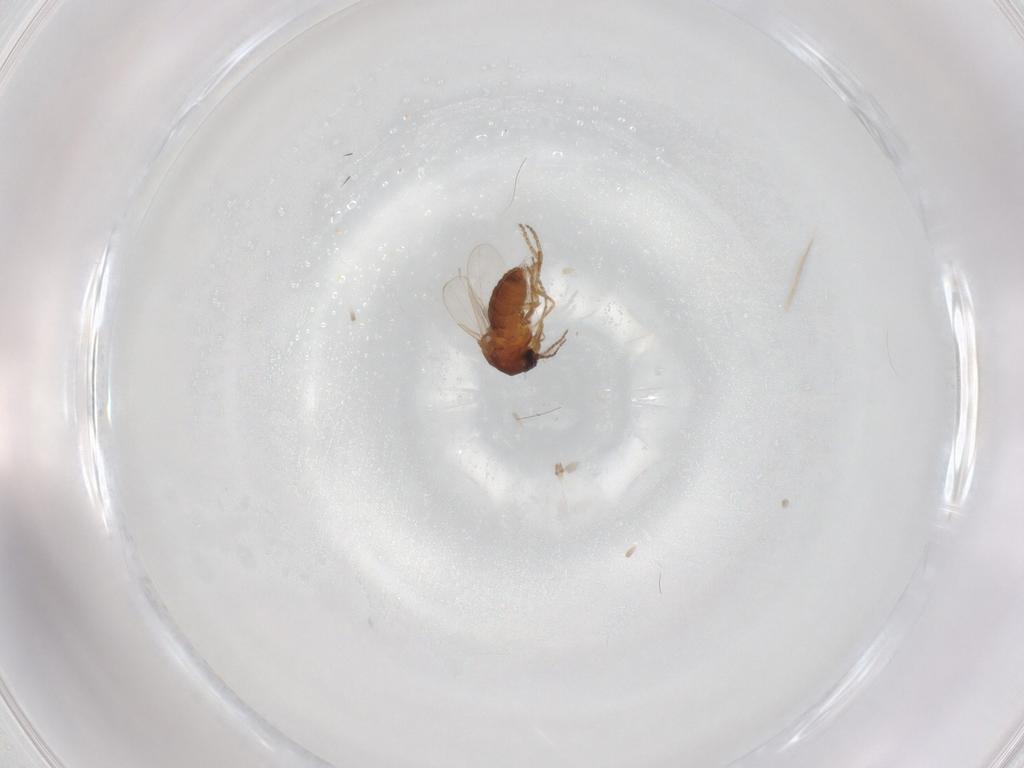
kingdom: Animalia
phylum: Arthropoda
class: Insecta
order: Diptera
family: Ceratopogonidae
